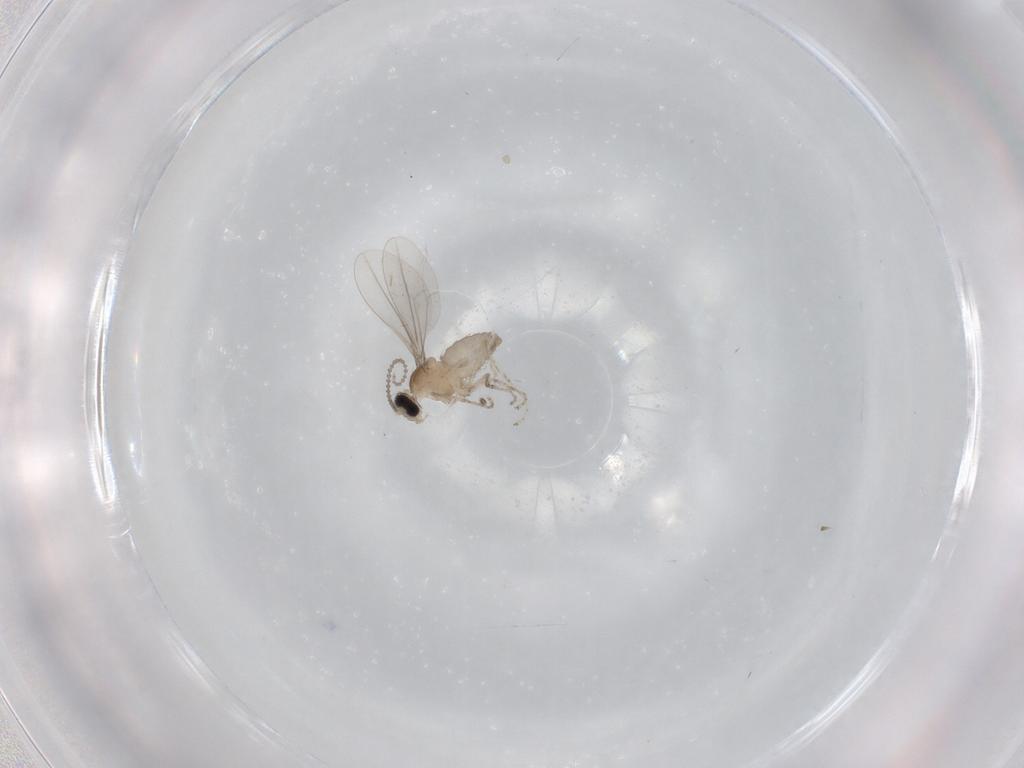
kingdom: Animalia
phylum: Arthropoda
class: Insecta
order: Diptera
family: Cecidomyiidae
